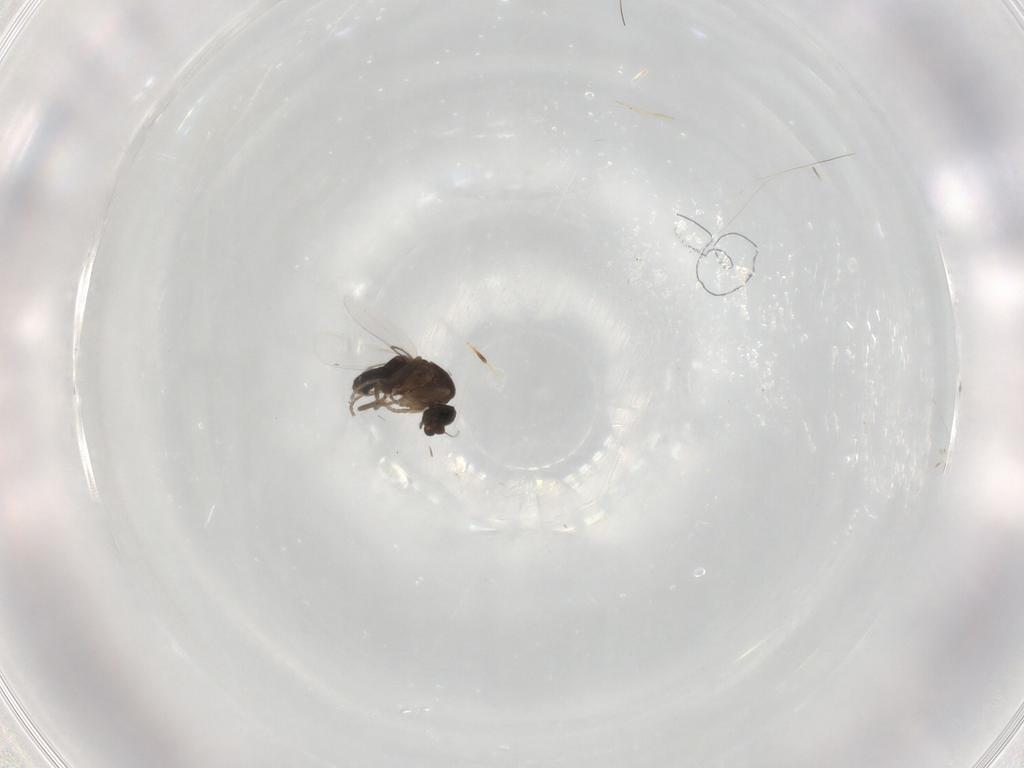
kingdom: Animalia
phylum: Arthropoda
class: Insecta
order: Diptera
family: Phoridae
